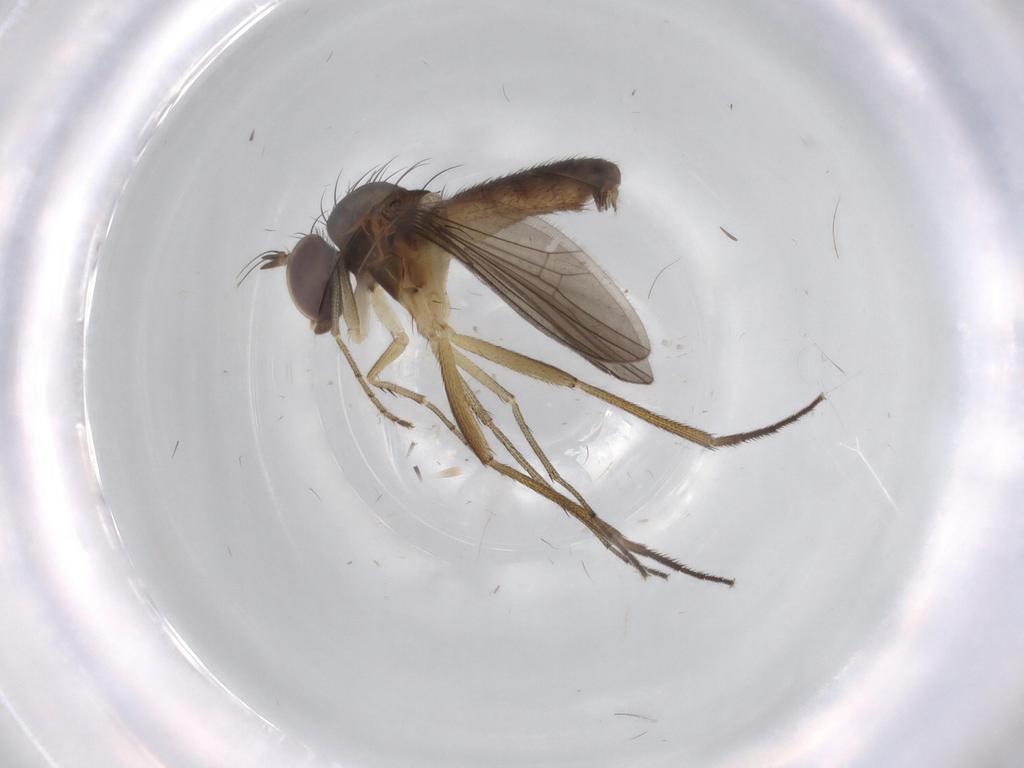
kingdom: Animalia
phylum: Arthropoda
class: Insecta
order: Diptera
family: Dolichopodidae
